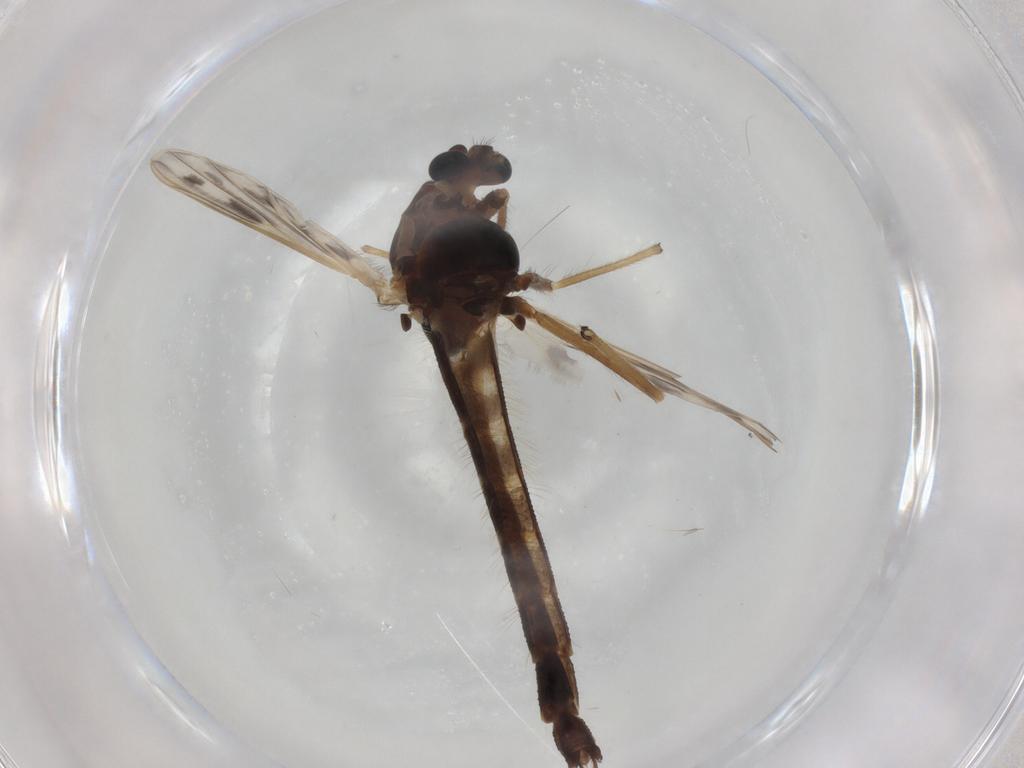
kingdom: Animalia
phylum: Arthropoda
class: Insecta
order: Diptera
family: Chironomidae
